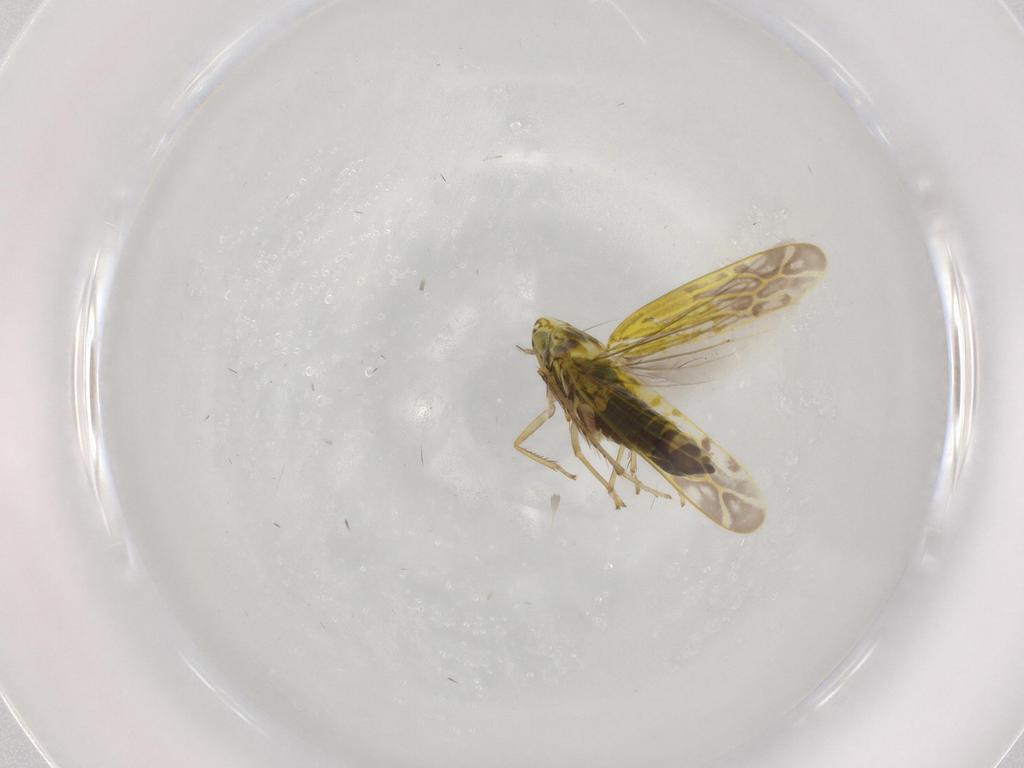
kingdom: Animalia
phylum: Arthropoda
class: Insecta
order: Hemiptera
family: Cicadellidae
